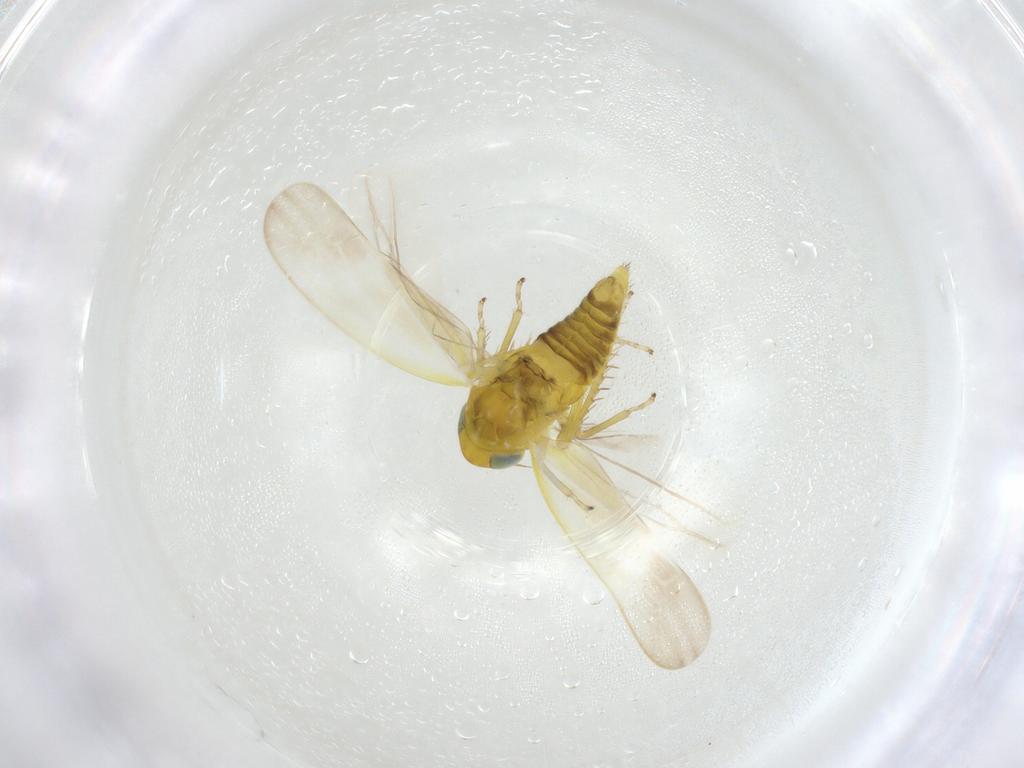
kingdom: Animalia
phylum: Arthropoda
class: Insecta
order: Hemiptera
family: Cicadellidae
